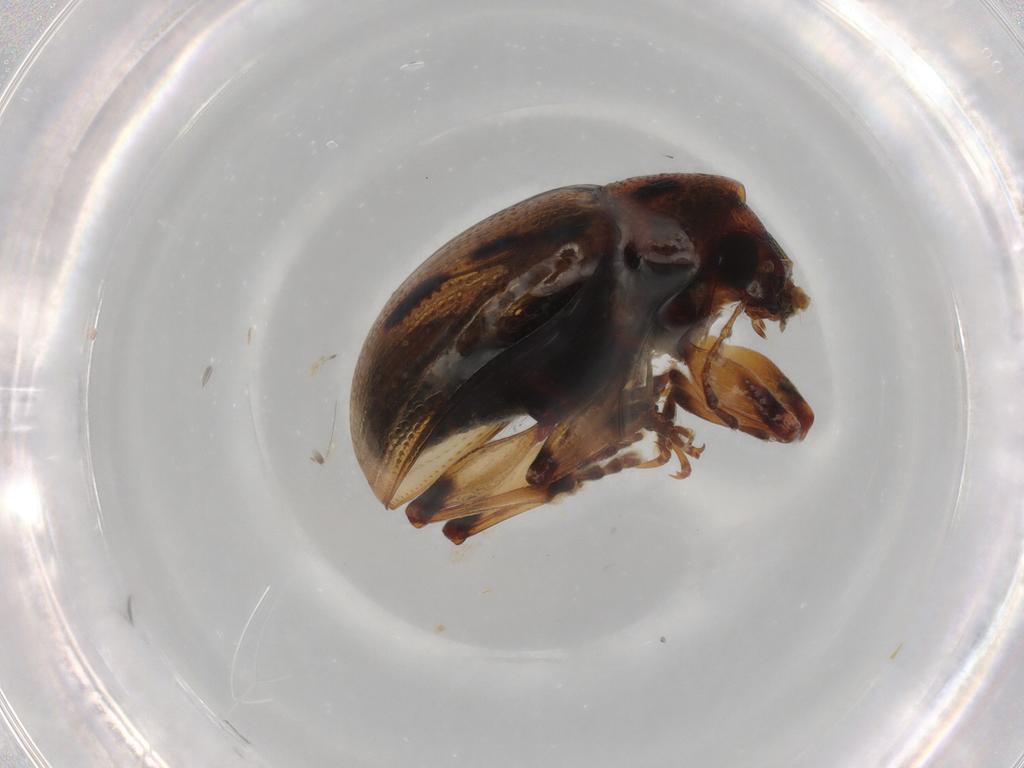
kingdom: Animalia
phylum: Arthropoda
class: Insecta
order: Coleoptera
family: Chrysomelidae
